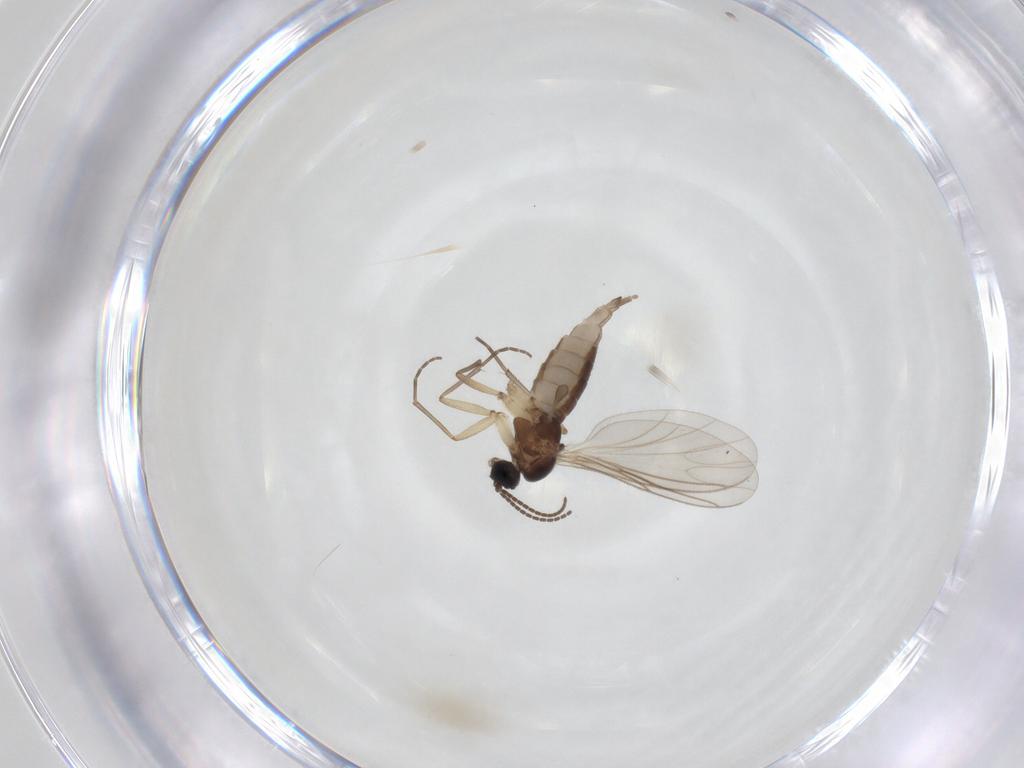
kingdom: Animalia
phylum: Arthropoda
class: Insecta
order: Diptera
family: Sciaridae
